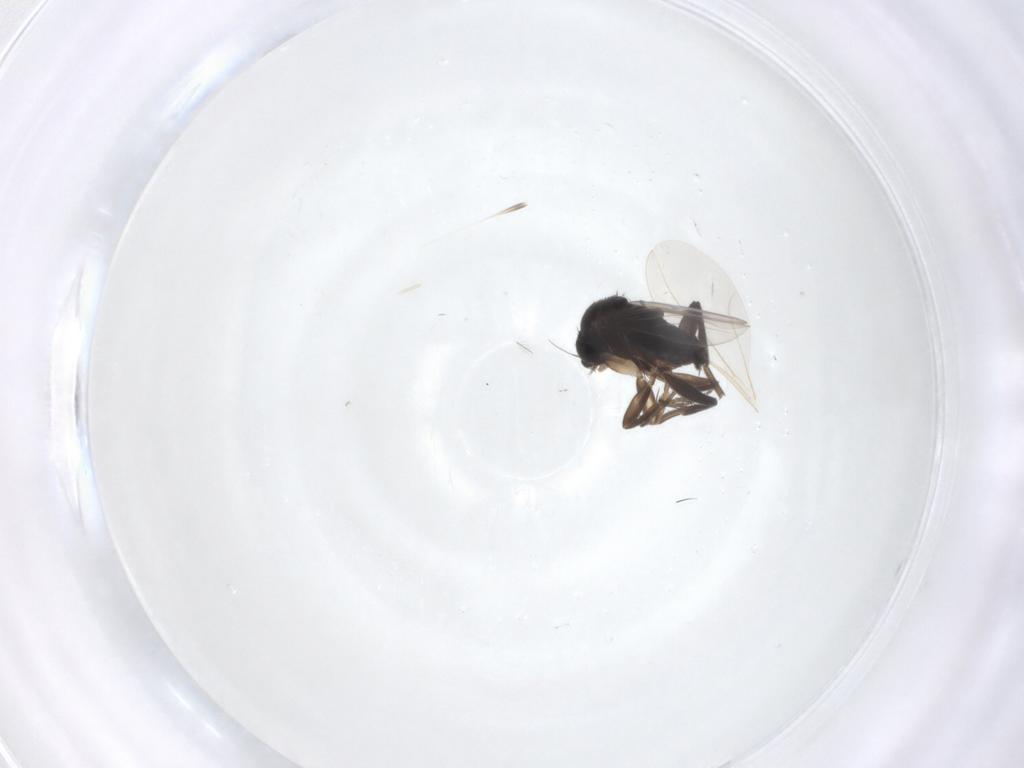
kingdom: Animalia
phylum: Arthropoda
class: Insecta
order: Diptera
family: Phoridae
